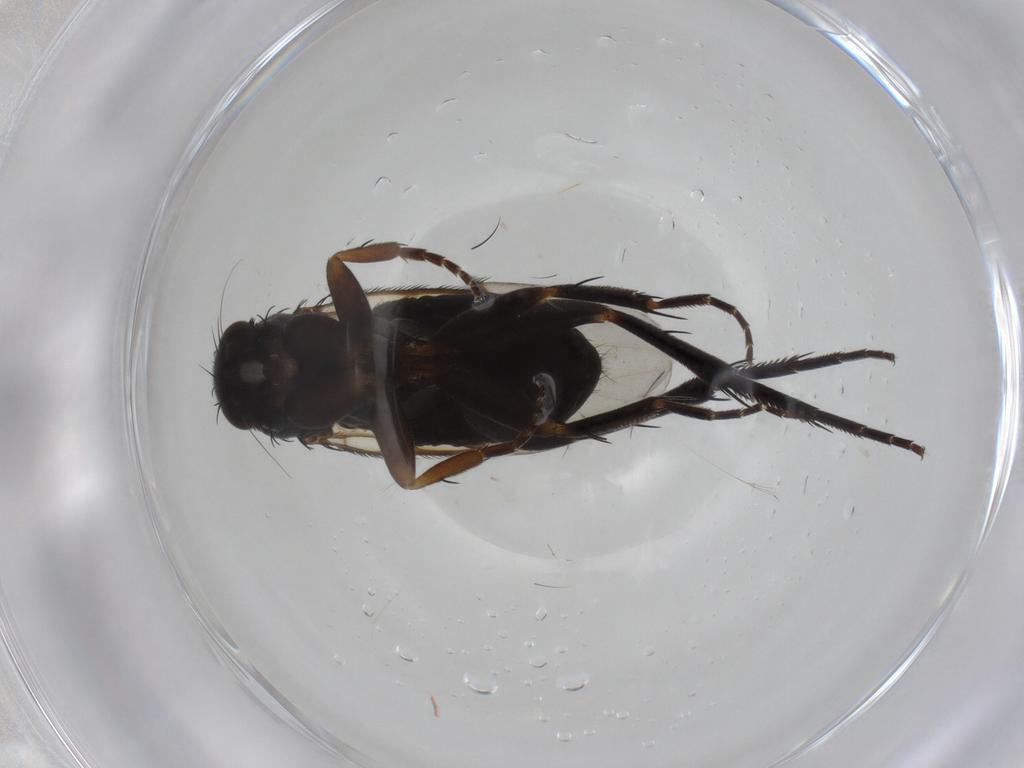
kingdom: Animalia
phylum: Arthropoda
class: Insecta
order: Diptera
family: Phoridae
